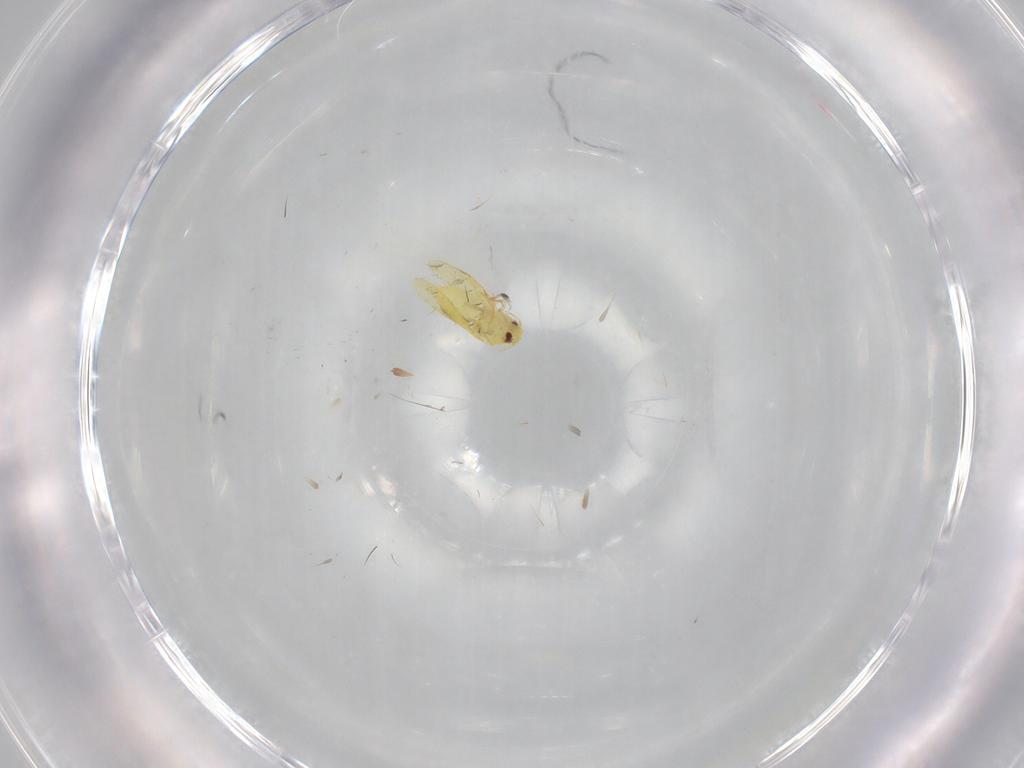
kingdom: Animalia
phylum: Arthropoda
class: Insecta
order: Hemiptera
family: Aleyrodidae
